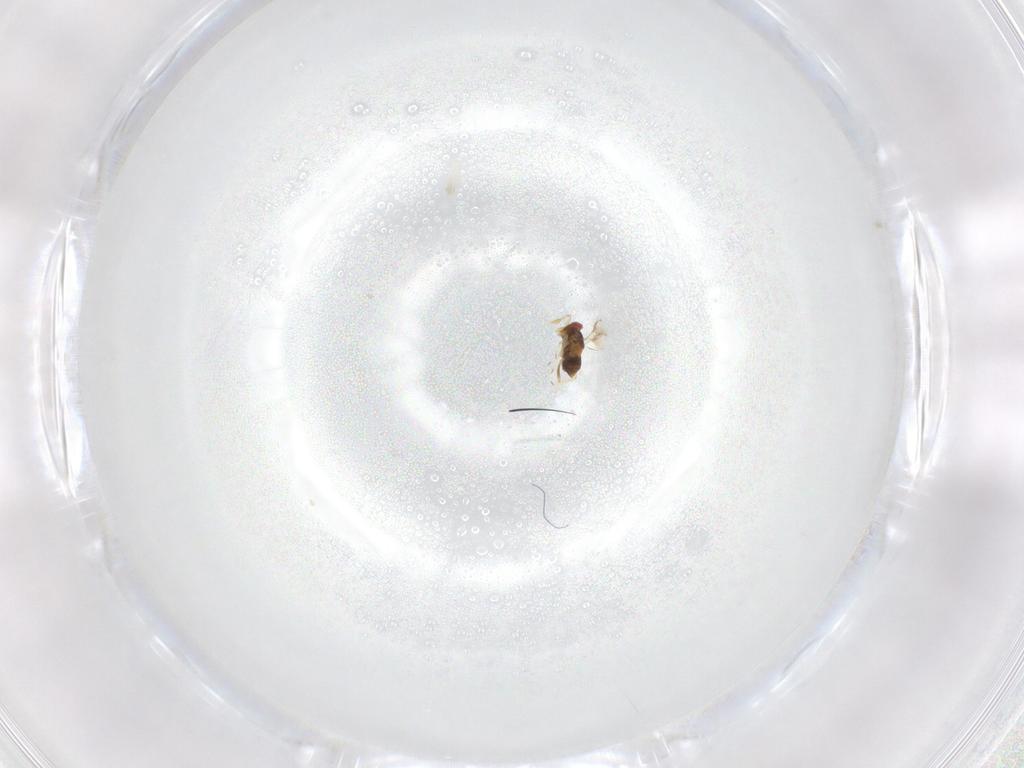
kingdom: Animalia
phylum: Arthropoda
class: Insecta
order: Hymenoptera
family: Trichogrammatidae
